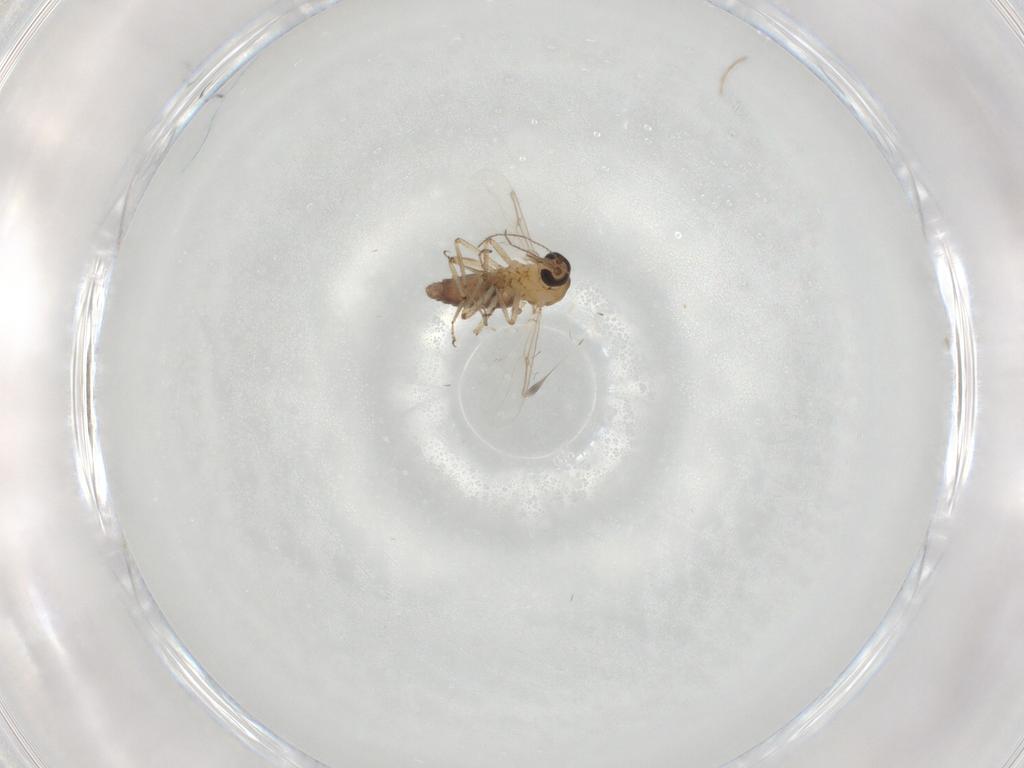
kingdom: Animalia
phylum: Arthropoda
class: Insecta
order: Diptera
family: Ceratopogonidae
